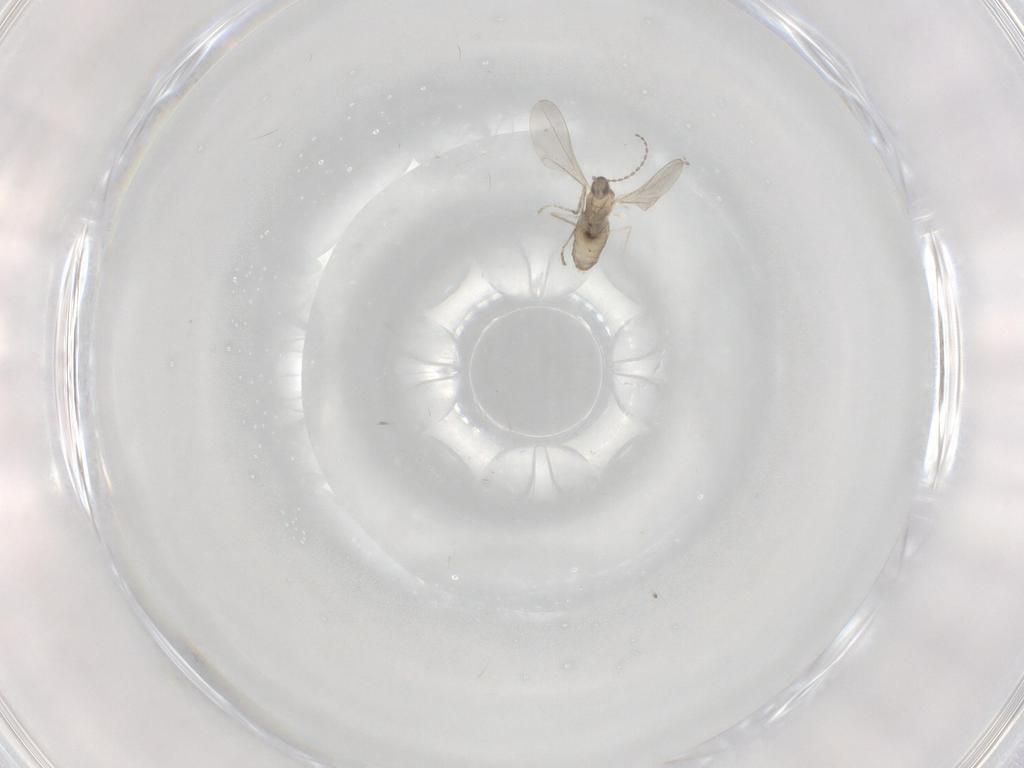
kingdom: Animalia
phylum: Arthropoda
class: Insecta
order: Diptera
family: Cecidomyiidae
